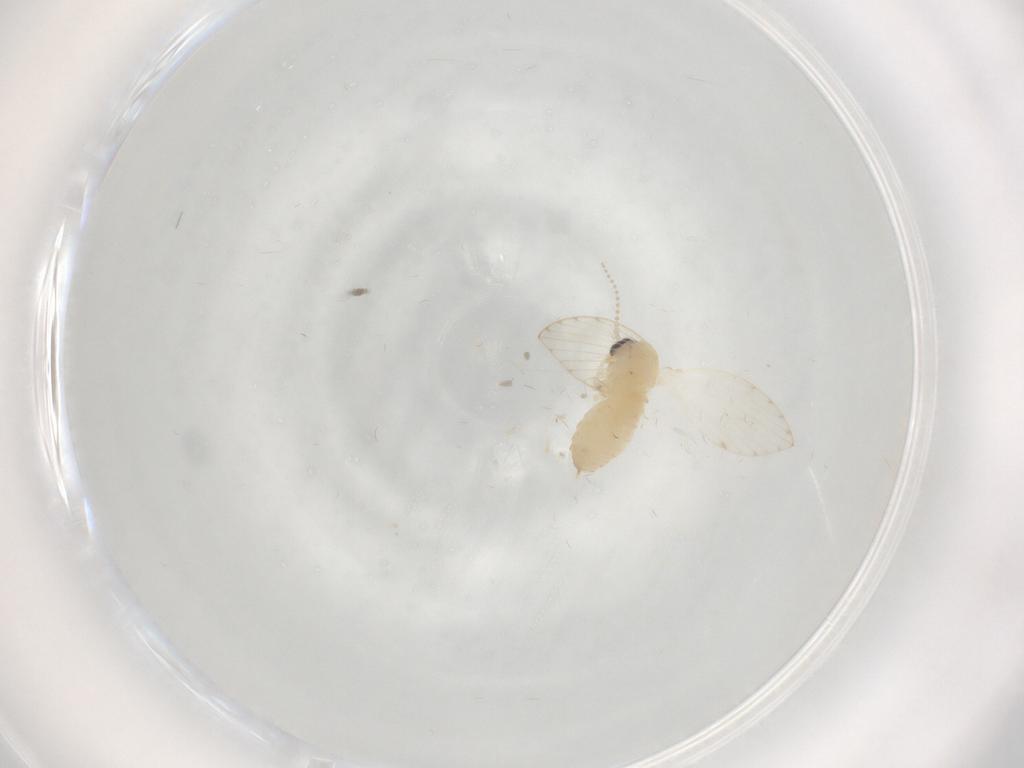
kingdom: Animalia
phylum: Arthropoda
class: Insecta
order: Diptera
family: Psychodidae
